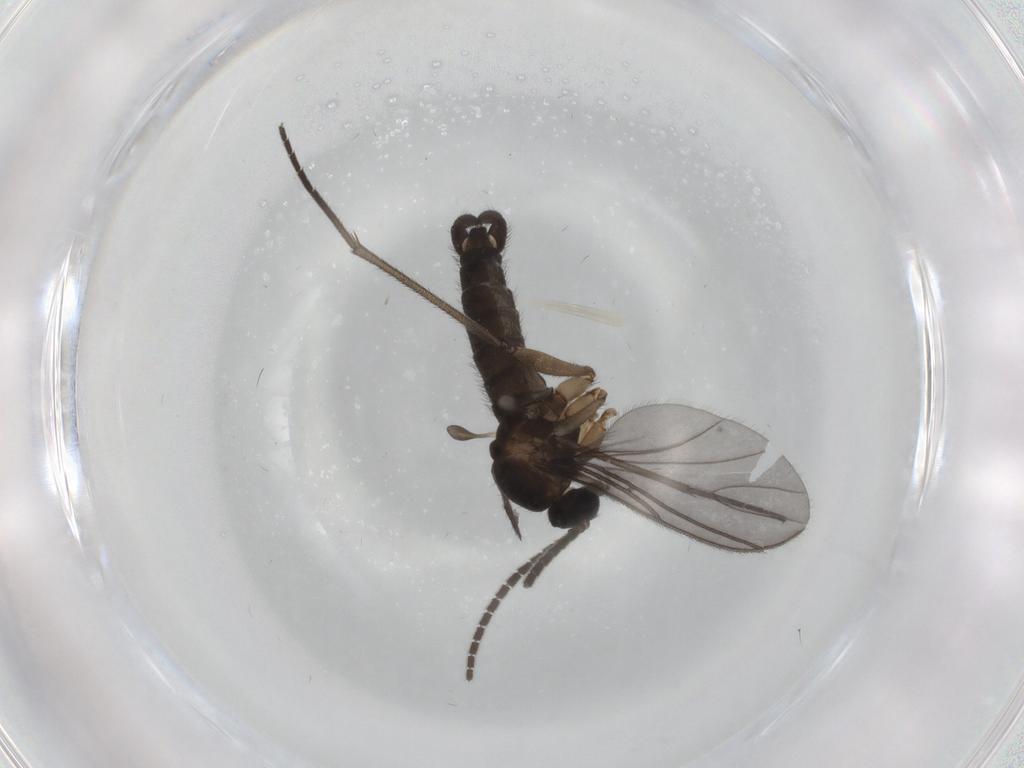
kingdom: Animalia
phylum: Arthropoda
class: Insecta
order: Diptera
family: Sciaridae
